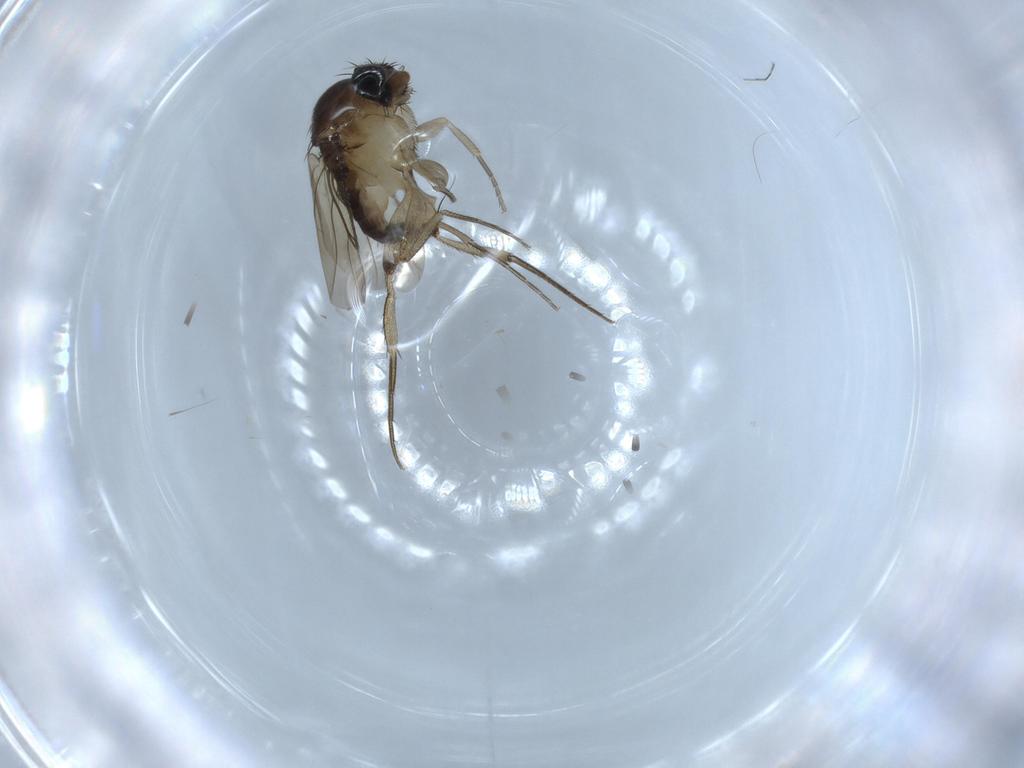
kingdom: Animalia
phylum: Arthropoda
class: Insecta
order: Diptera
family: Phoridae
